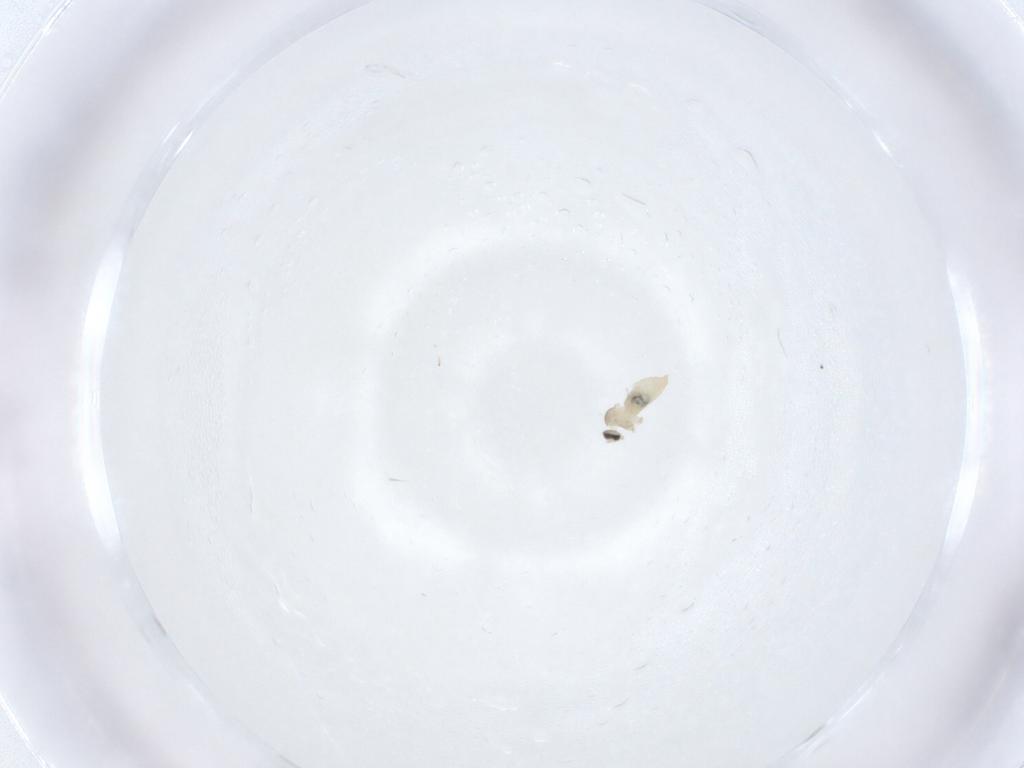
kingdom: Animalia
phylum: Arthropoda
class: Insecta
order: Diptera
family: Cecidomyiidae
